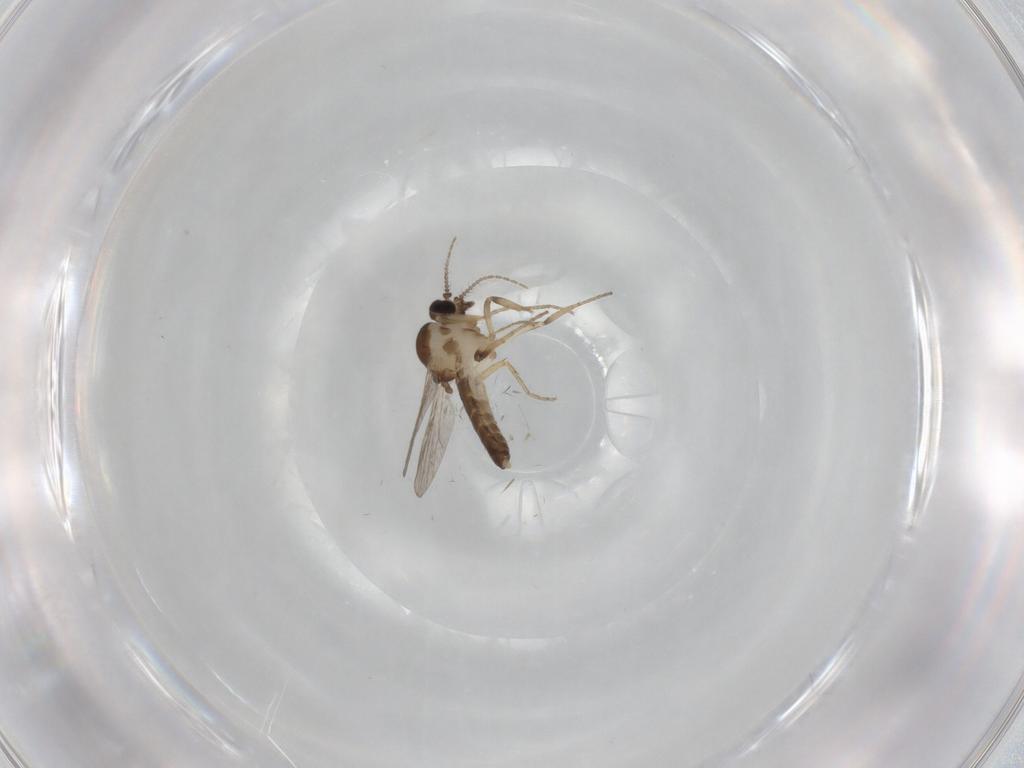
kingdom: Animalia
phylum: Arthropoda
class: Insecta
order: Diptera
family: Ceratopogonidae
